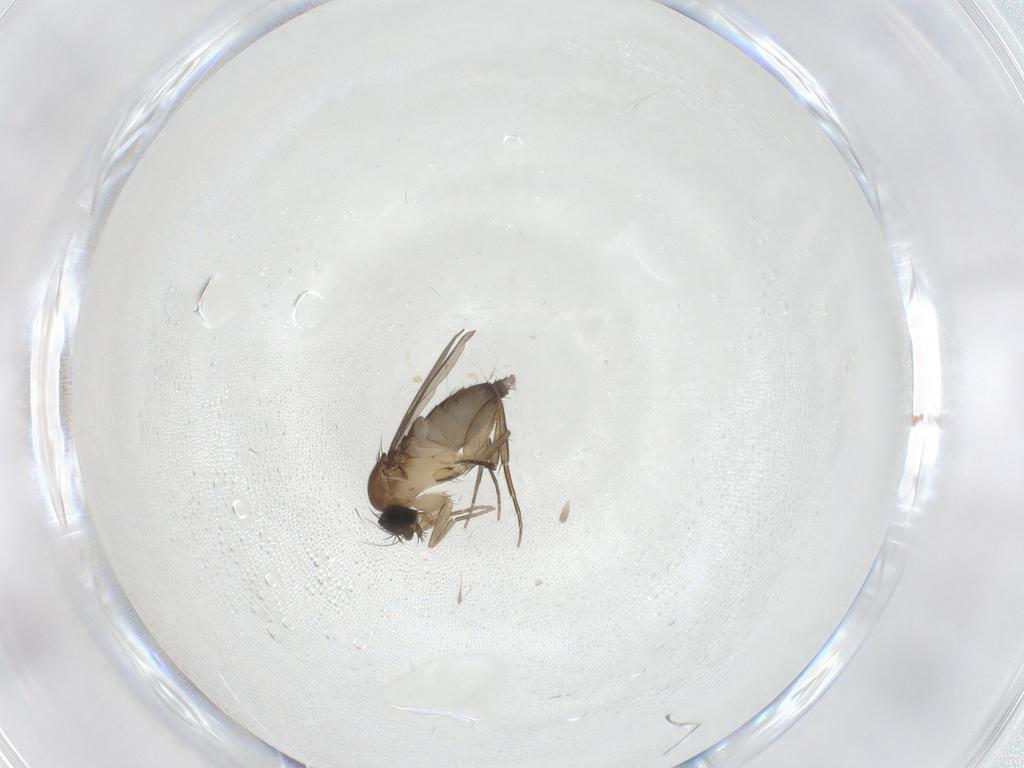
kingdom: Animalia
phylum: Arthropoda
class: Insecta
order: Diptera
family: Phoridae
